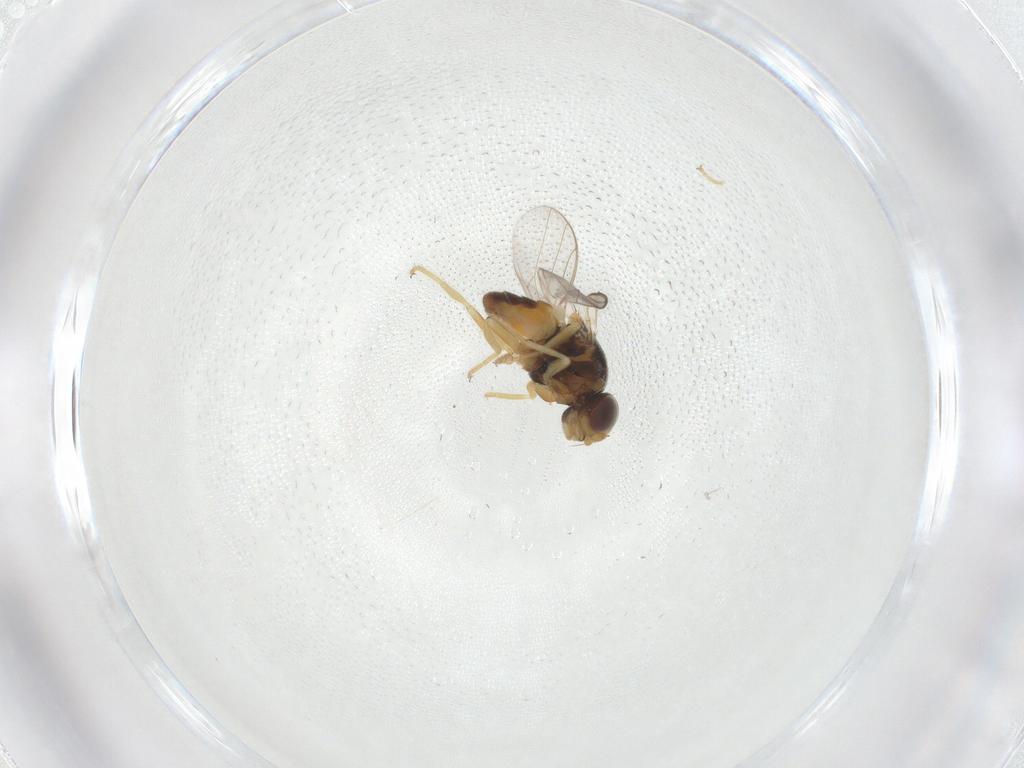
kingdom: Animalia
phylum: Arthropoda
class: Insecta
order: Diptera
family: Chloropidae
